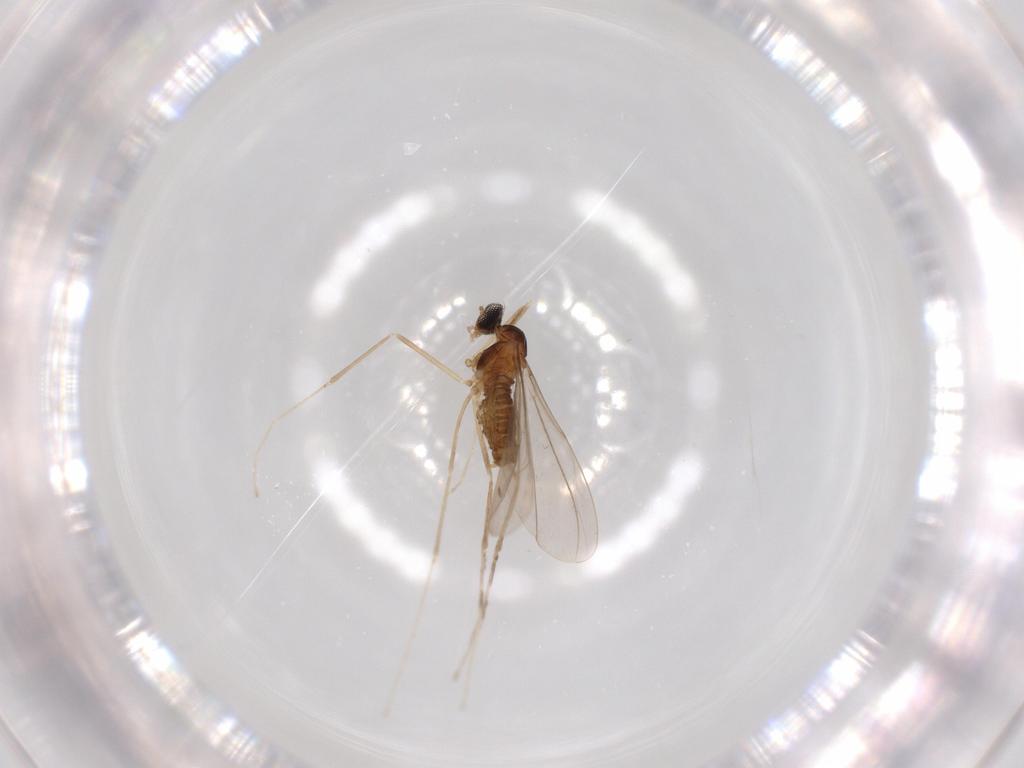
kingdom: Animalia
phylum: Arthropoda
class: Insecta
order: Diptera
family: Cecidomyiidae
